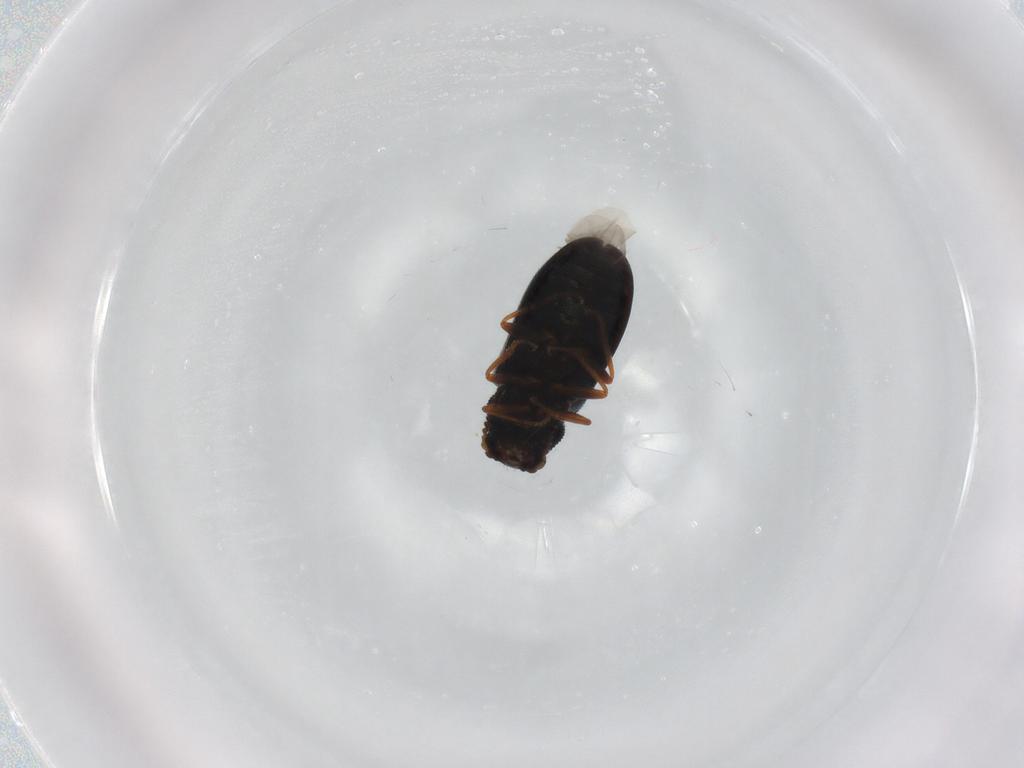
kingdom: Animalia
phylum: Arthropoda
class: Insecta
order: Coleoptera
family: Melyridae
